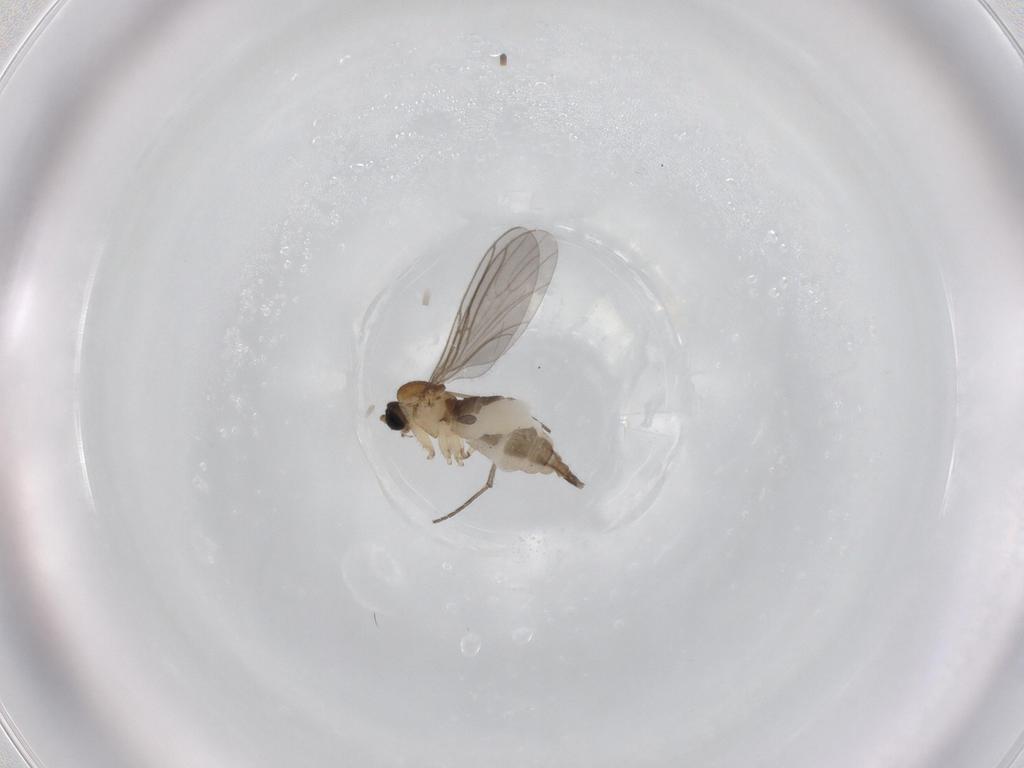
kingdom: Animalia
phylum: Arthropoda
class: Insecta
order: Diptera
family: Sciaridae
